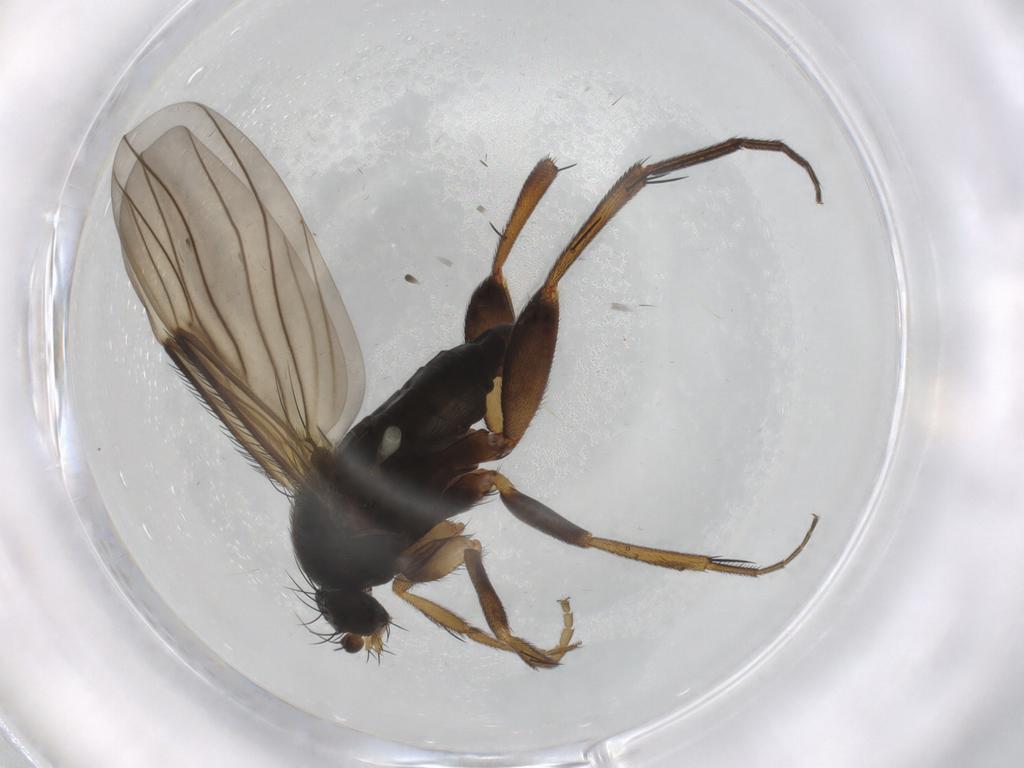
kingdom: Animalia
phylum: Arthropoda
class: Insecta
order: Diptera
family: Phoridae
